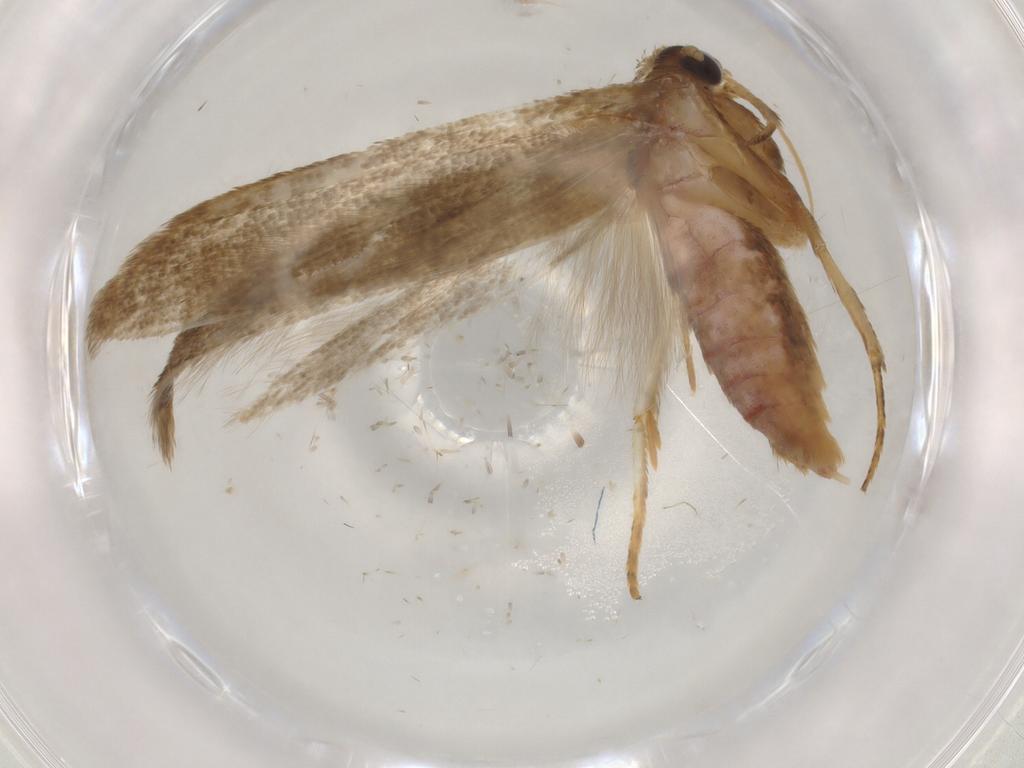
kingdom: Animalia
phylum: Arthropoda
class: Insecta
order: Lepidoptera
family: Blastobasidae
